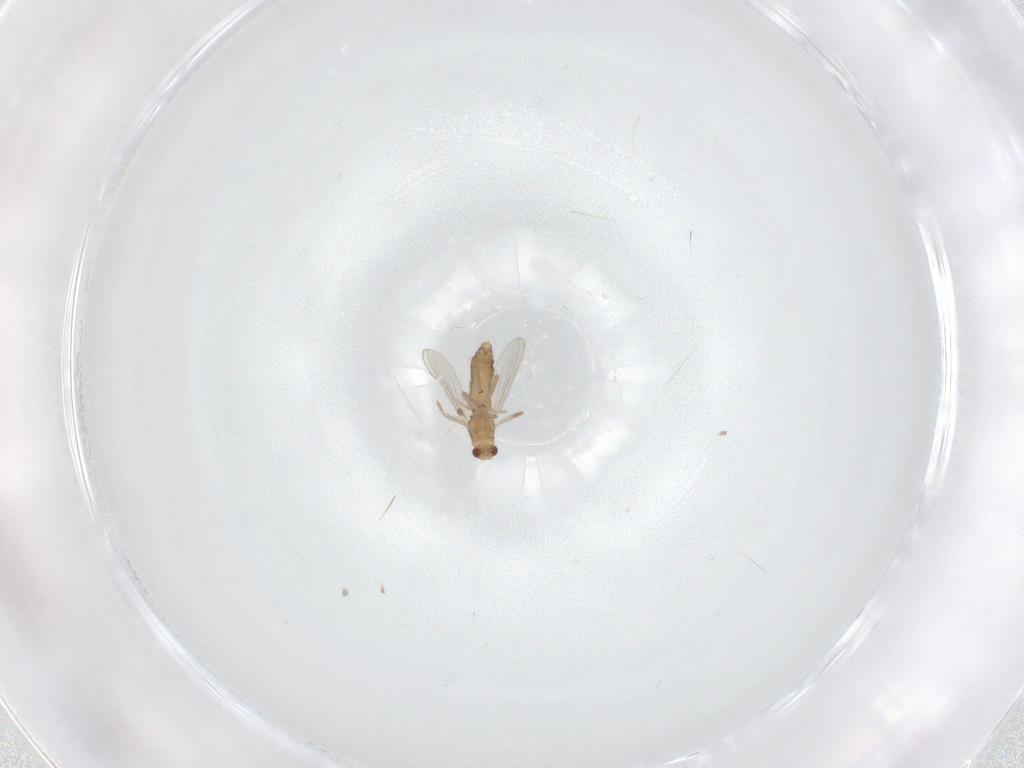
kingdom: Animalia
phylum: Arthropoda
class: Insecta
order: Diptera
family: Chironomidae
